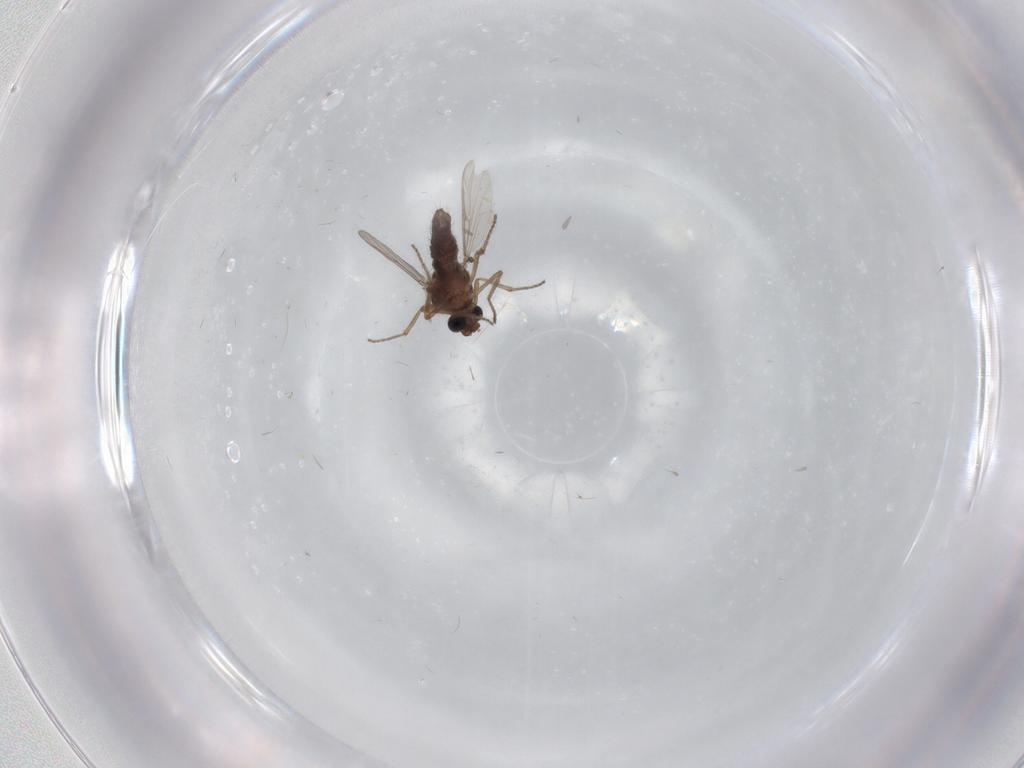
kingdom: Animalia
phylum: Arthropoda
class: Insecta
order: Diptera
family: Ceratopogonidae
